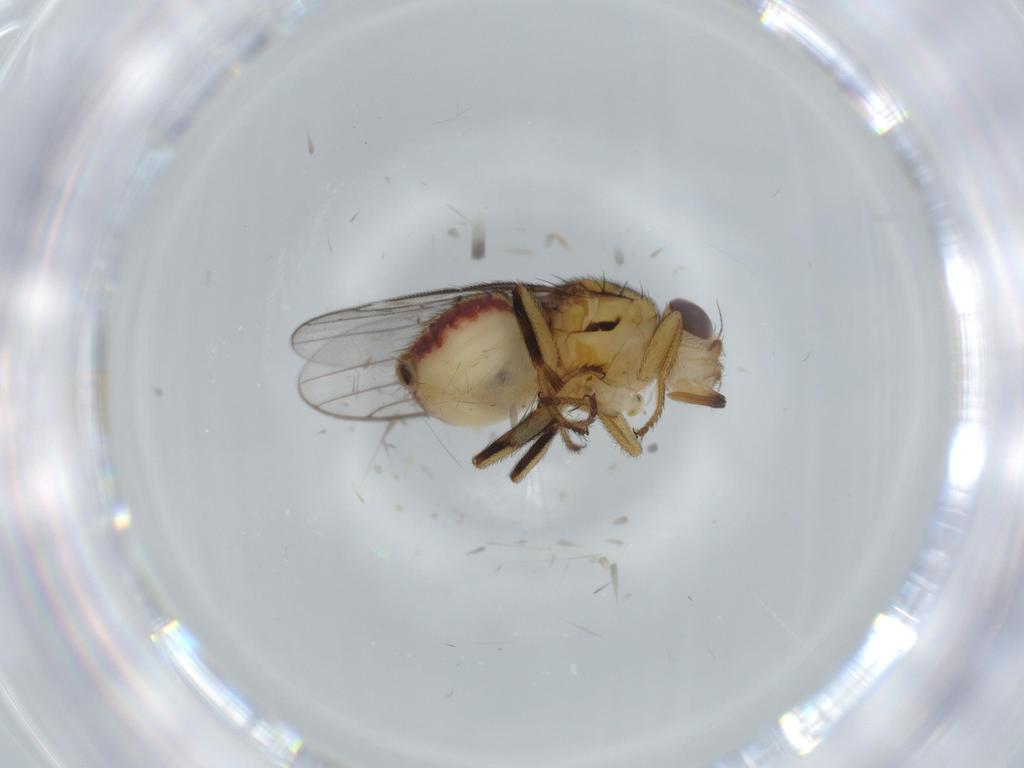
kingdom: Animalia
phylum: Arthropoda
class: Insecta
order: Diptera
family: Chloropidae
